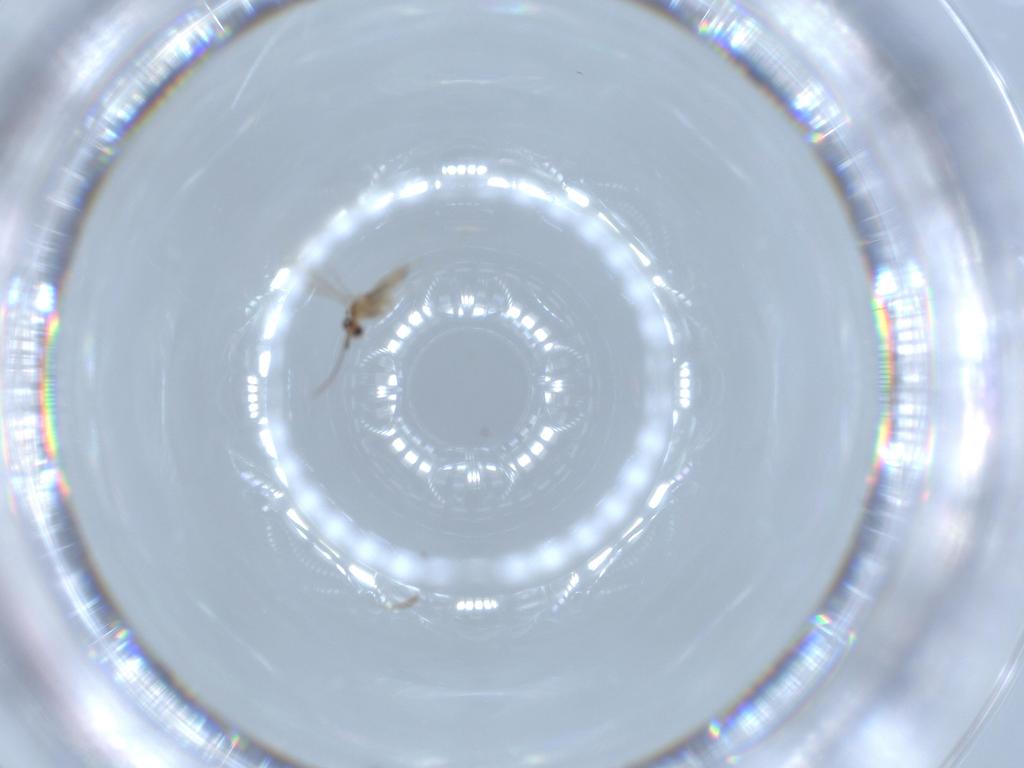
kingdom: Animalia
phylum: Arthropoda
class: Insecta
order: Diptera
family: Cecidomyiidae
